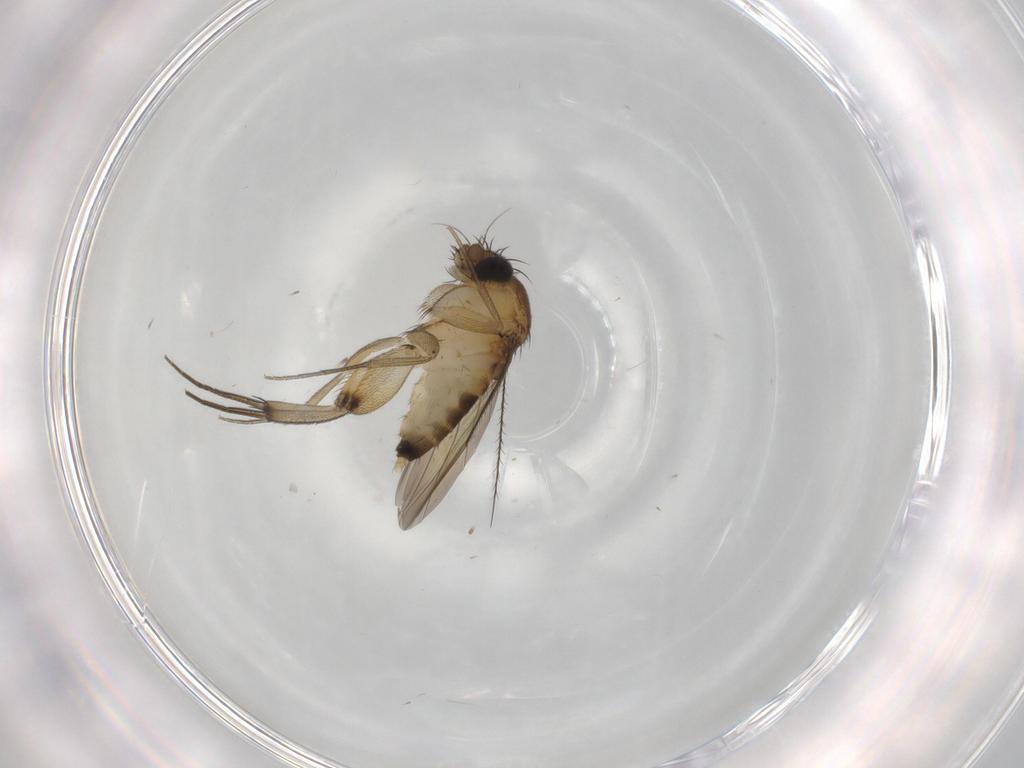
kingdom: Animalia
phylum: Arthropoda
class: Insecta
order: Diptera
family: Phoridae
